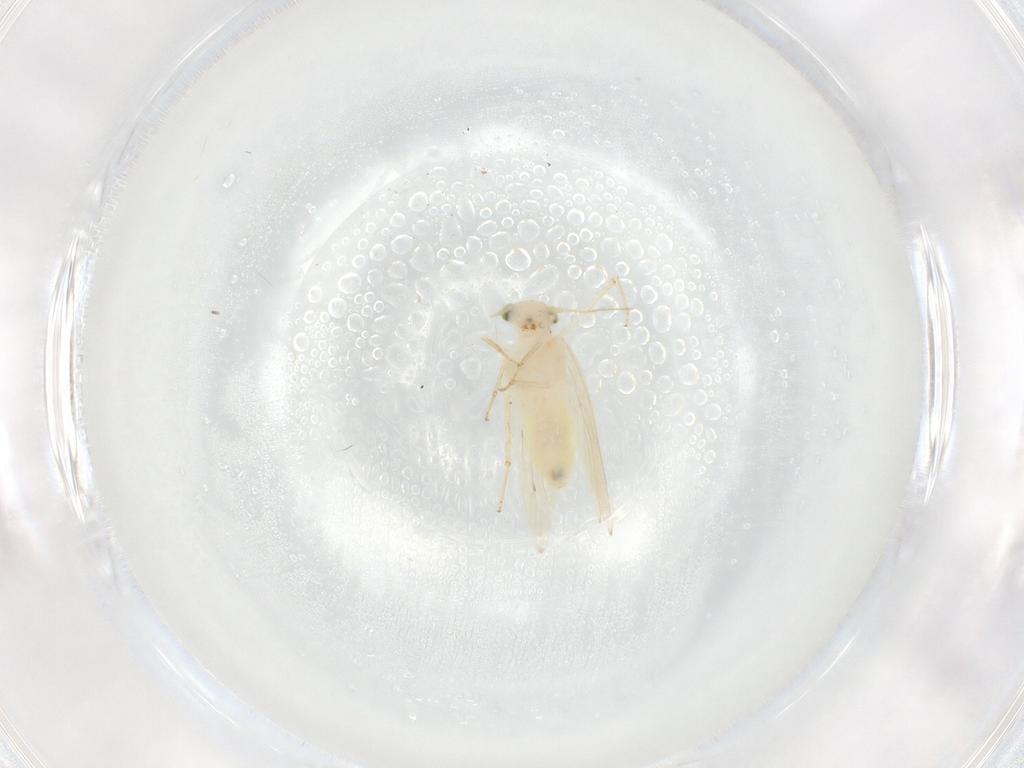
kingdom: Animalia
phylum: Arthropoda
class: Insecta
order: Psocodea
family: Lepidopsocidae
